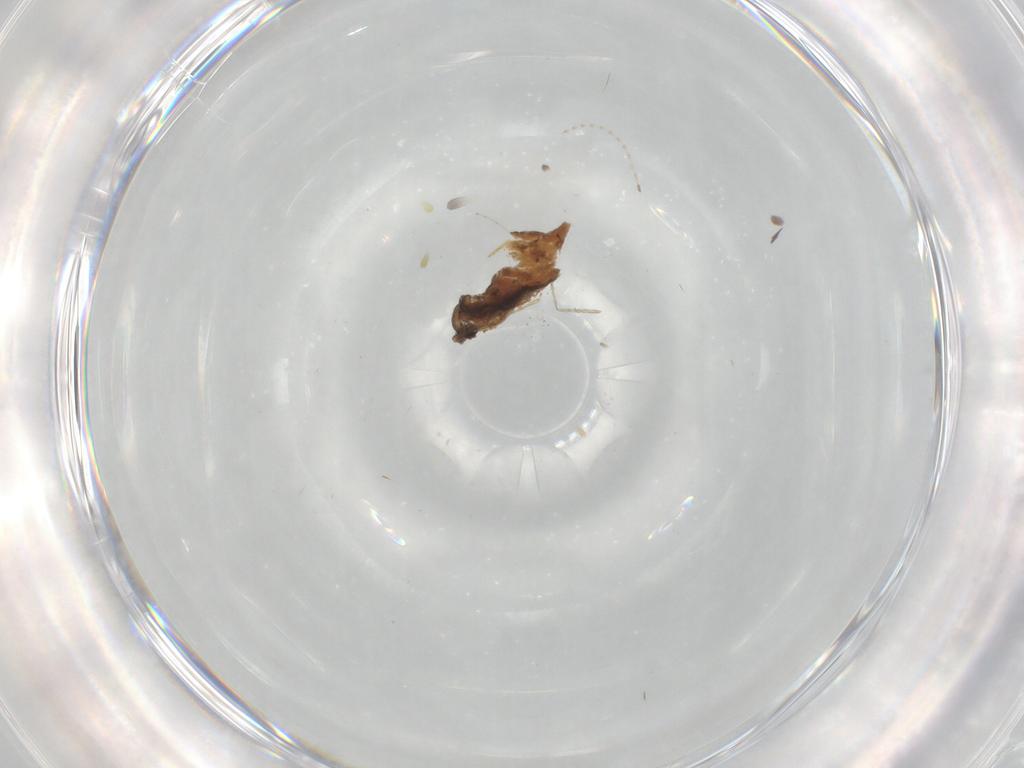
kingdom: Animalia
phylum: Arthropoda
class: Insecta
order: Diptera
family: Cecidomyiidae
